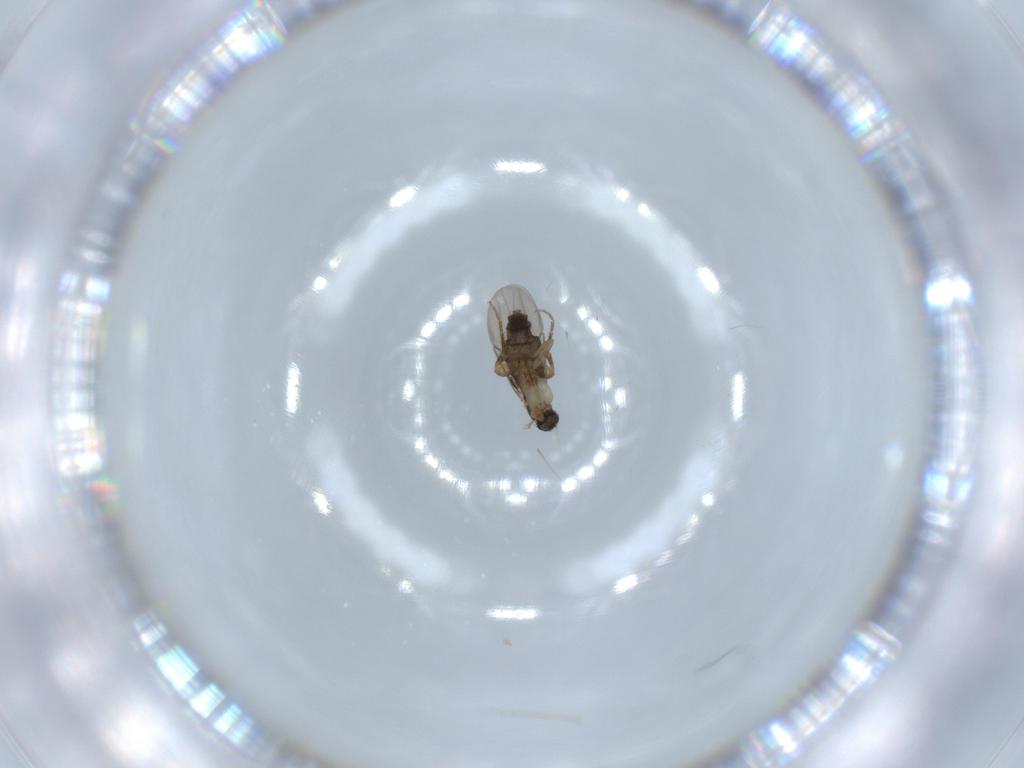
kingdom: Animalia
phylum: Arthropoda
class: Insecta
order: Diptera
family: Phoridae
